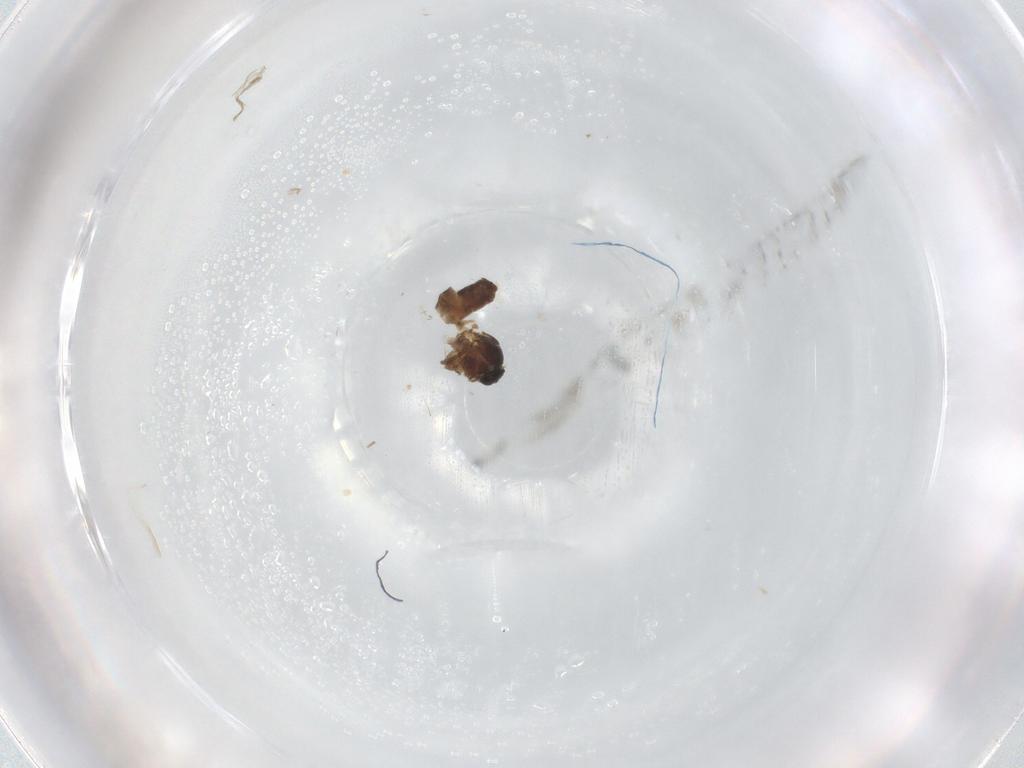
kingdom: Animalia
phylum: Arthropoda
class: Insecta
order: Diptera
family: Ceratopogonidae
